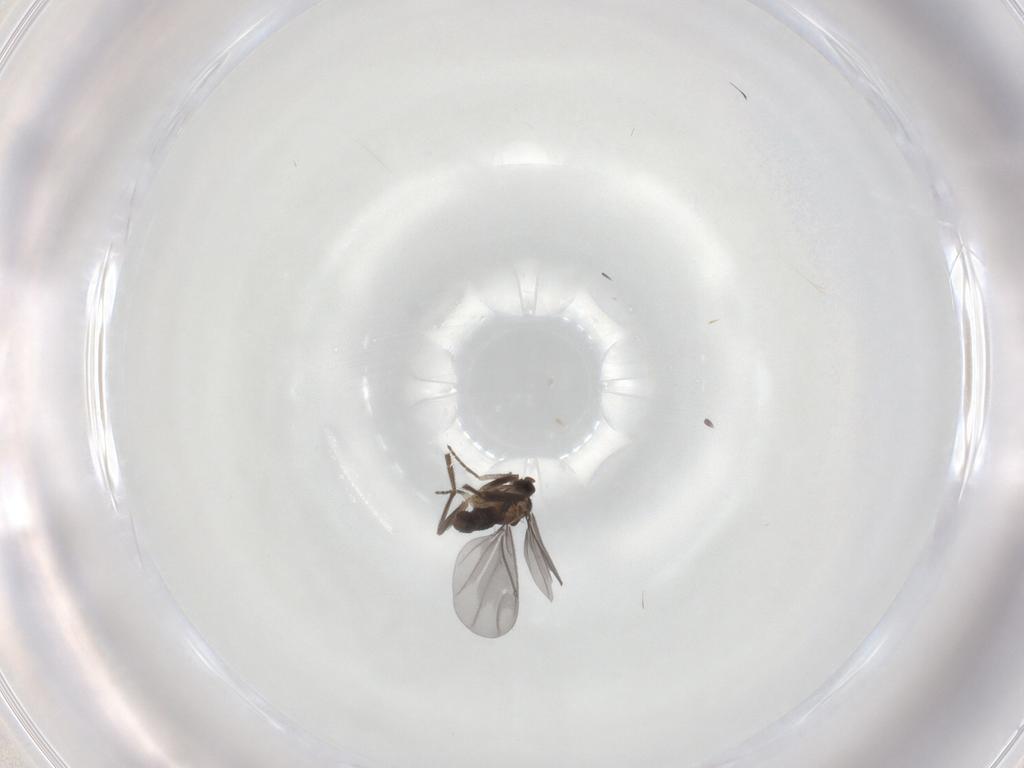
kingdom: Animalia
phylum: Arthropoda
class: Insecta
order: Diptera
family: Phoridae
